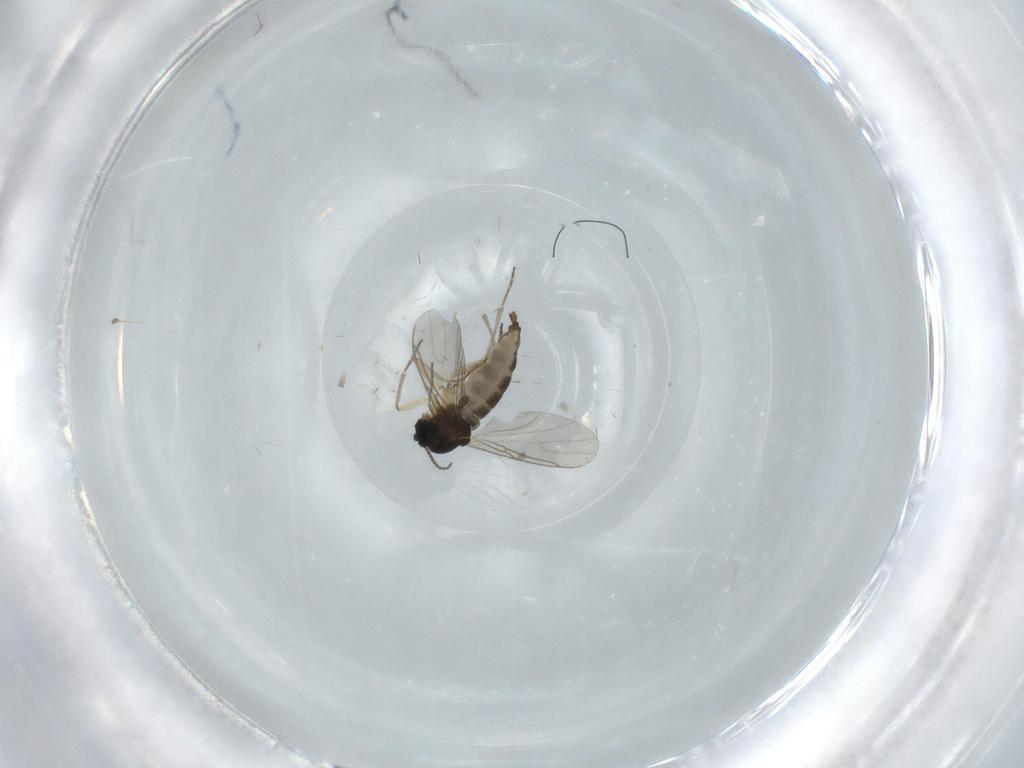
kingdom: Animalia
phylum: Arthropoda
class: Insecta
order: Diptera
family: Sciaridae
